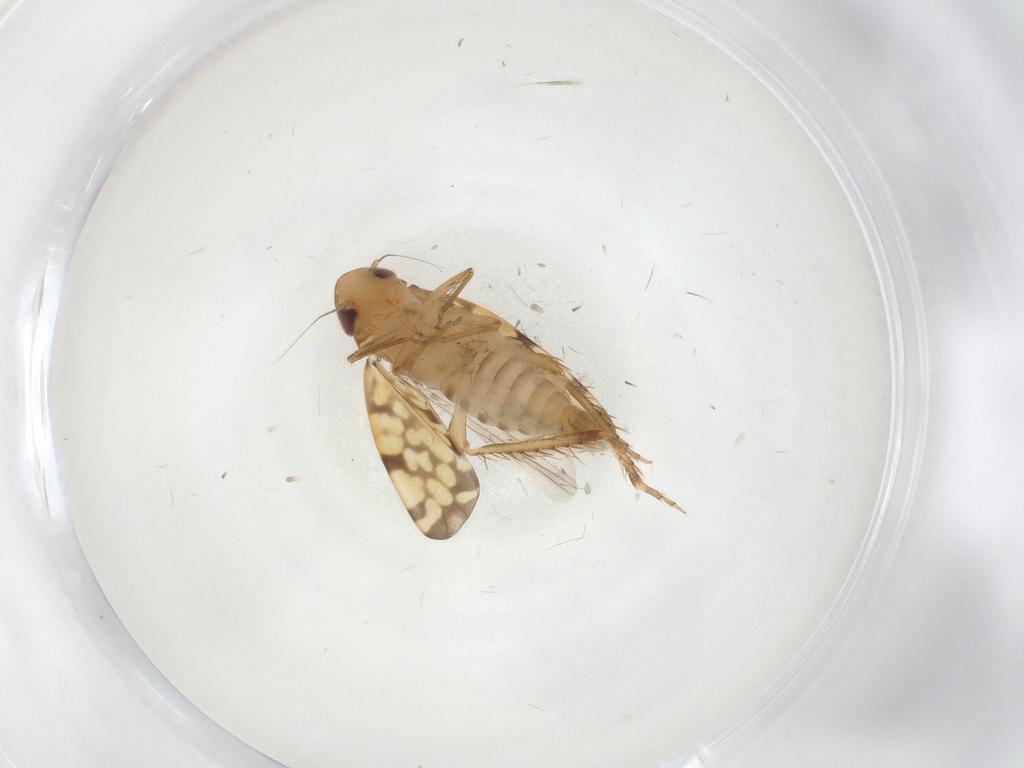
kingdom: Animalia
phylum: Arthropoda
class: Insecta
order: Hemiptera
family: Cicadellidae
